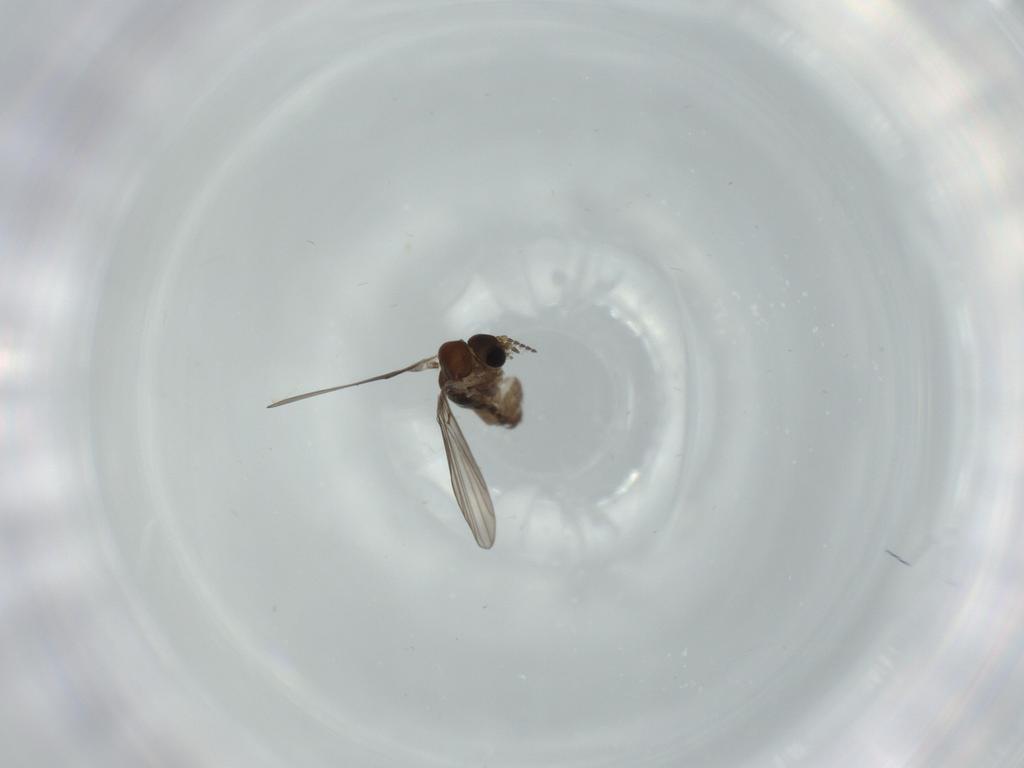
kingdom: Animalia
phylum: Arthropoda
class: Insecta
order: Diptera
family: Psychodidae
